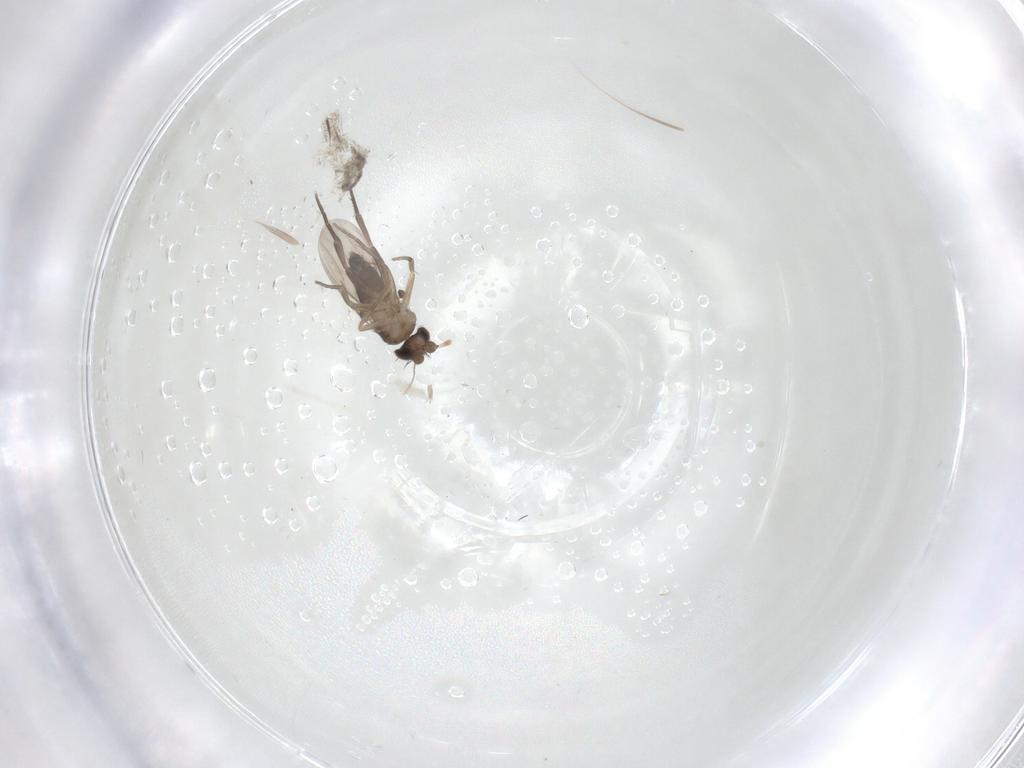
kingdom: Animalia
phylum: Arthropoda
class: Insecta
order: Diptera
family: Phoridae
